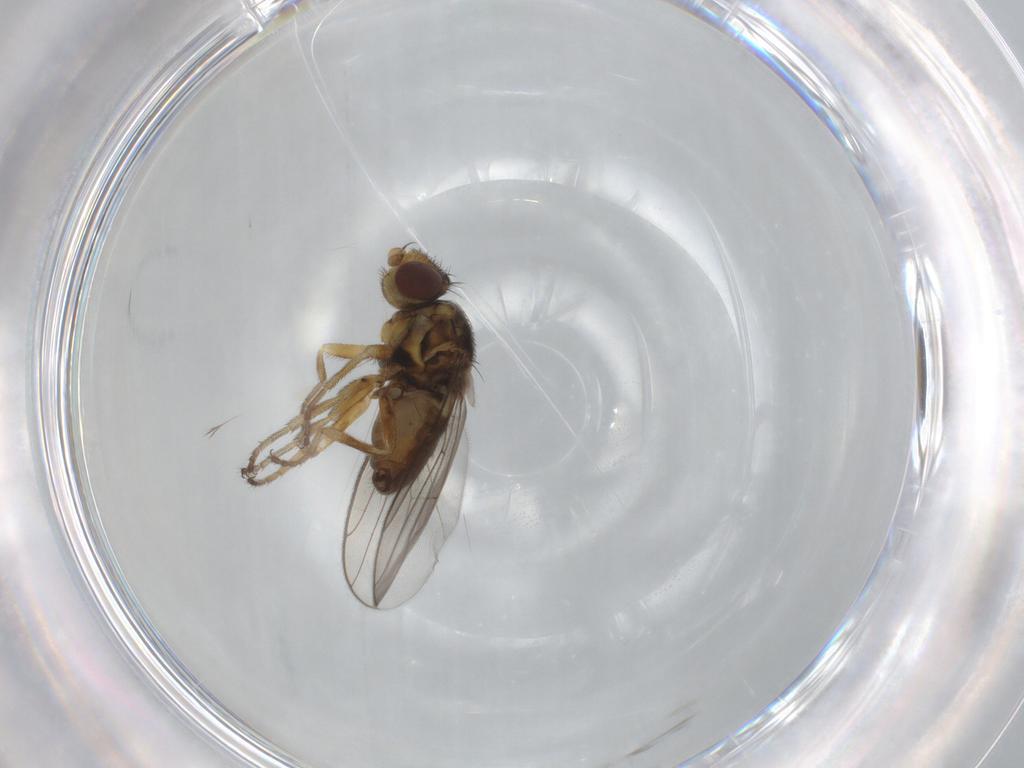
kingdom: Animalia
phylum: Arthropoda
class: Insecta
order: Diptera
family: Chloropidae
